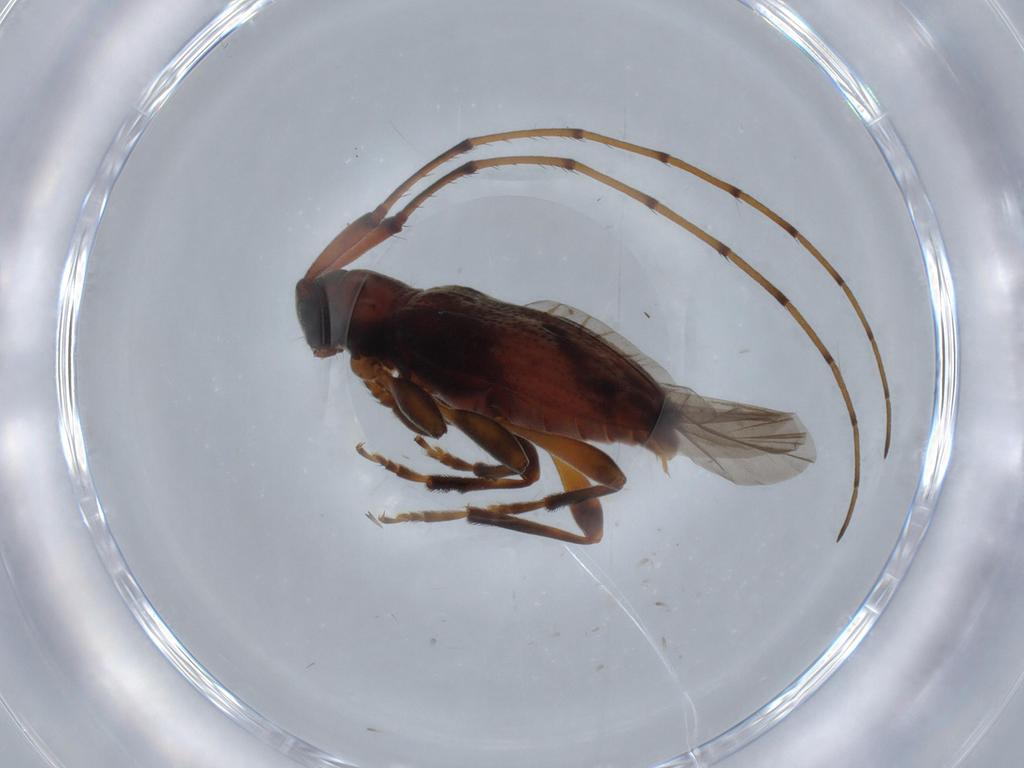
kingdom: Animalia
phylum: Arthropoda
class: Insecta
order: Coleoptera
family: Cerambycidae
